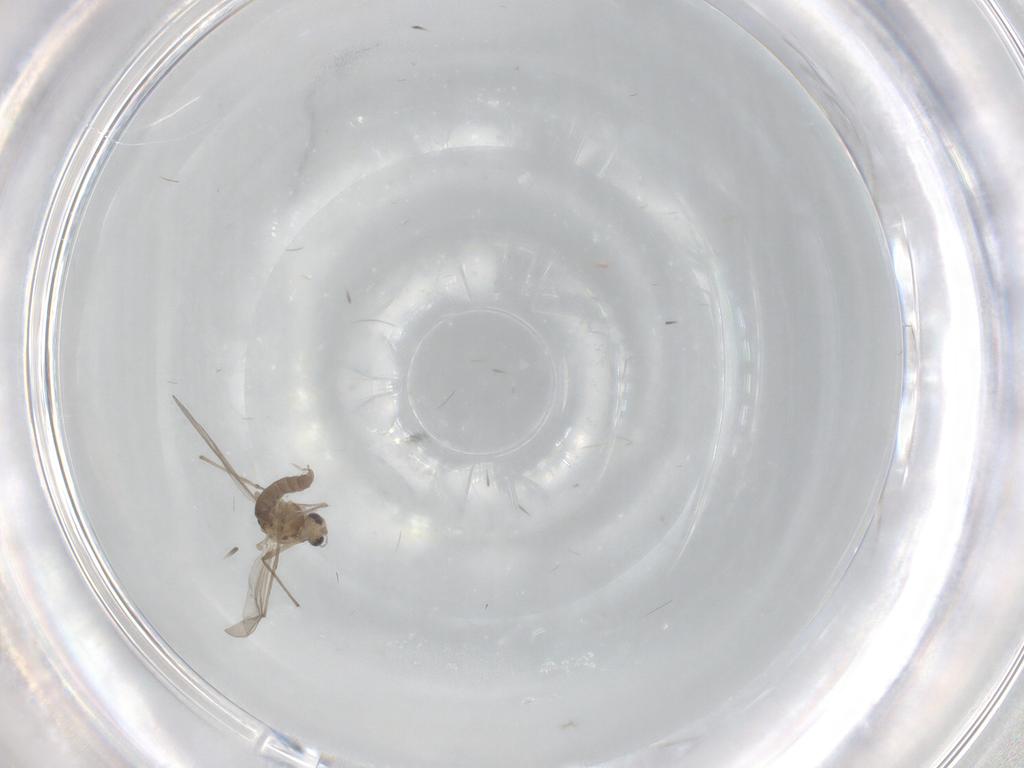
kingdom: Animalia
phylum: Arthropoda
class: Insecta
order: Diptera
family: Chironomidae
